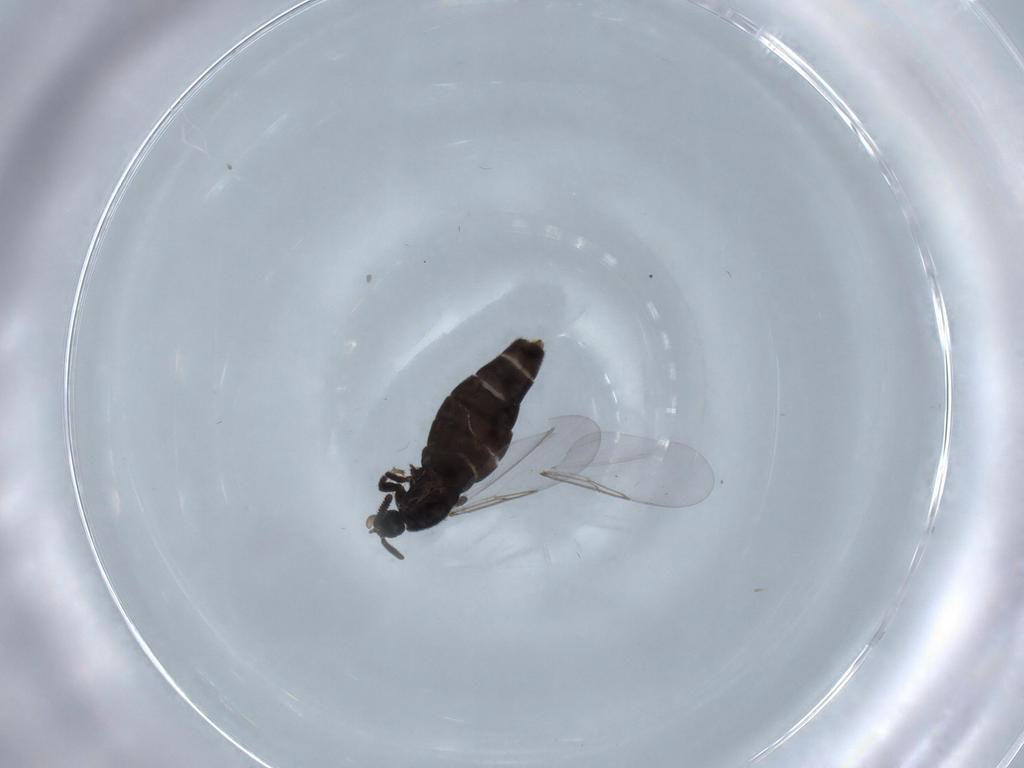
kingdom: Animalia
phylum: Arthropoda
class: Insecta
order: Diptera
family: Scatopsidae
